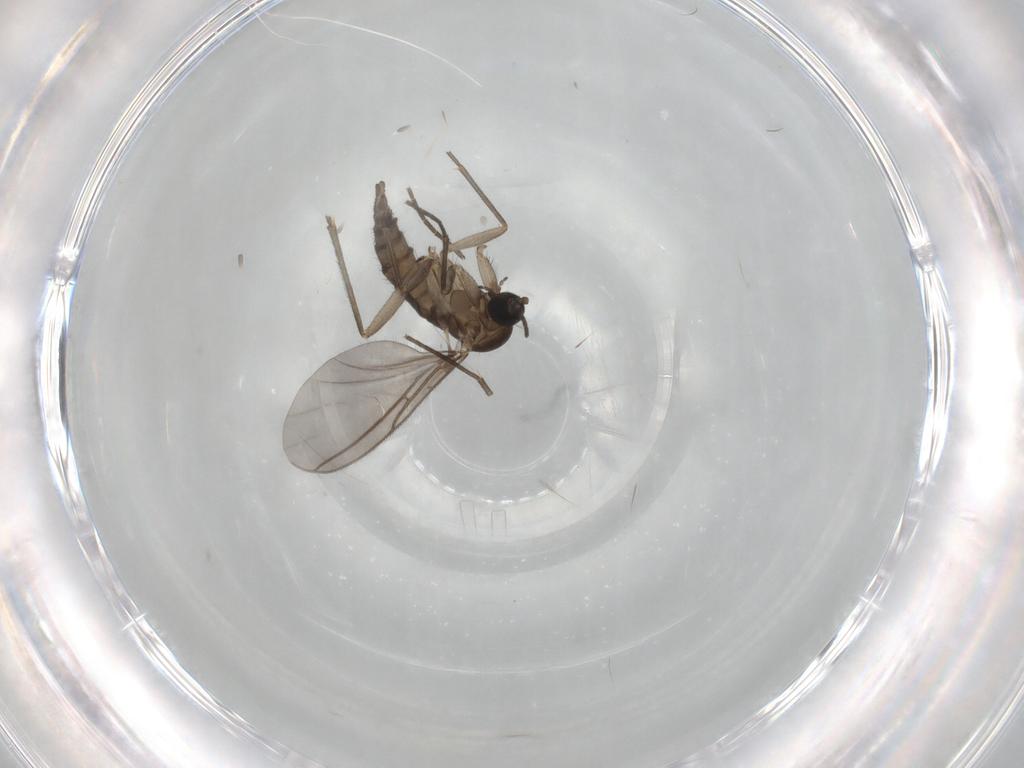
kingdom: Animalia
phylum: Arthropoda
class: Insecta
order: Diptera
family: Sciaridae
